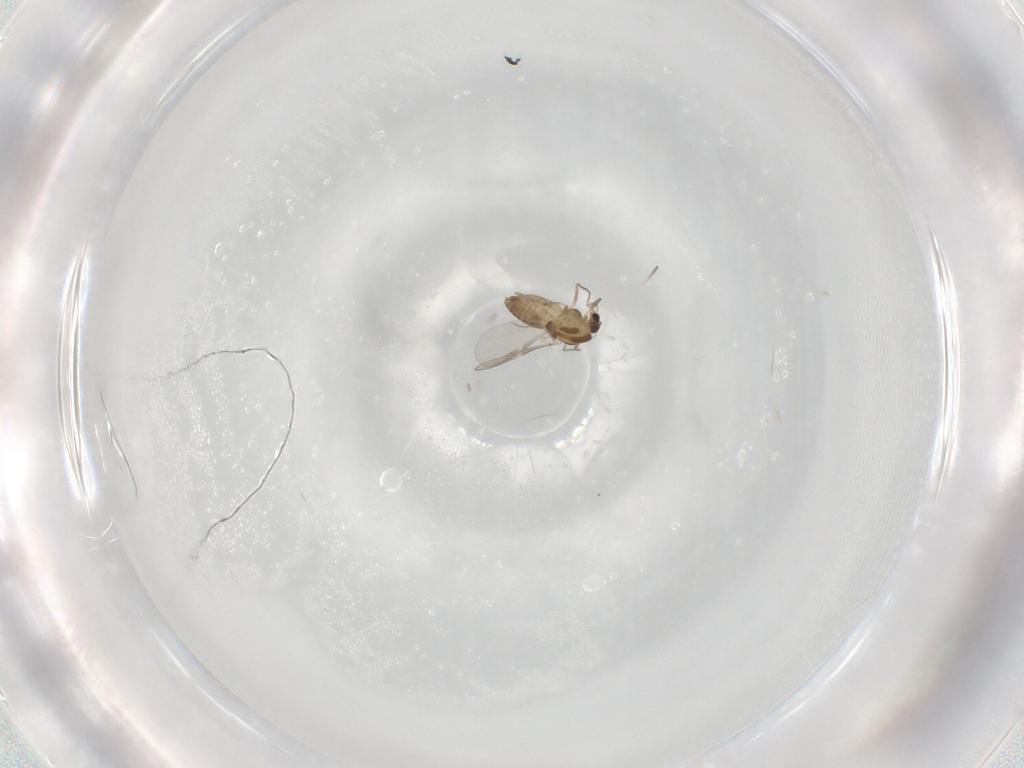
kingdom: Animalia
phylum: Arthropoda
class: Insecta
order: Diptera
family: Chironomidae
